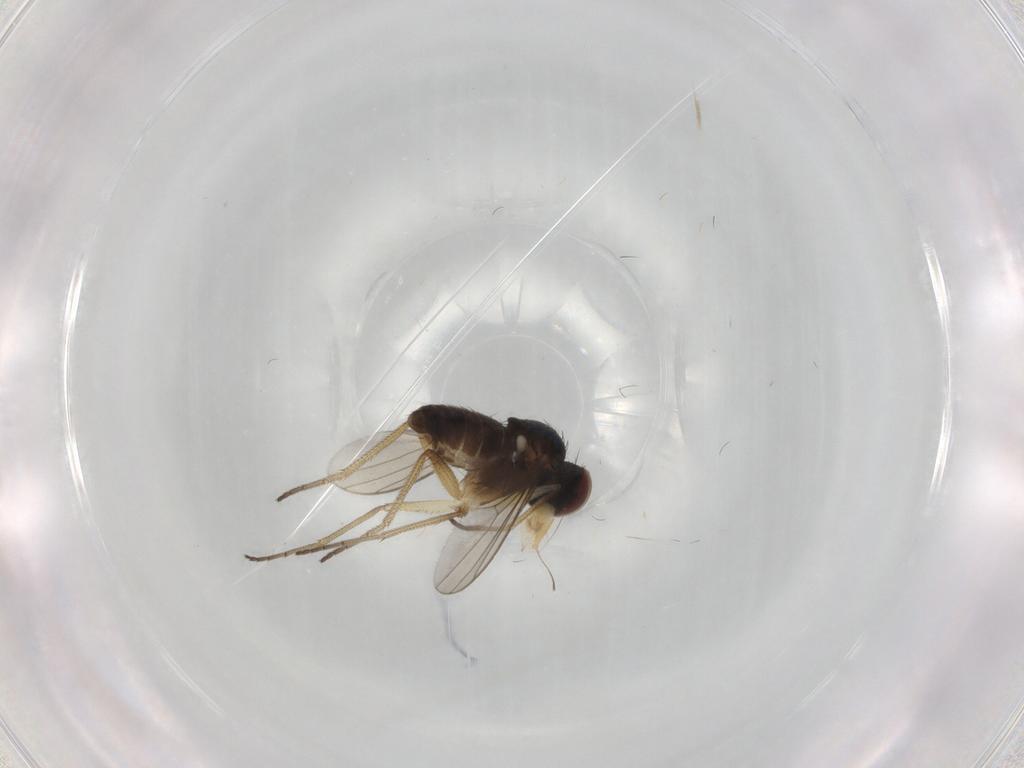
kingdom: Animalia
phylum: Arthropoda
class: Insecta
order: Diptera
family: Dolichopodidae
